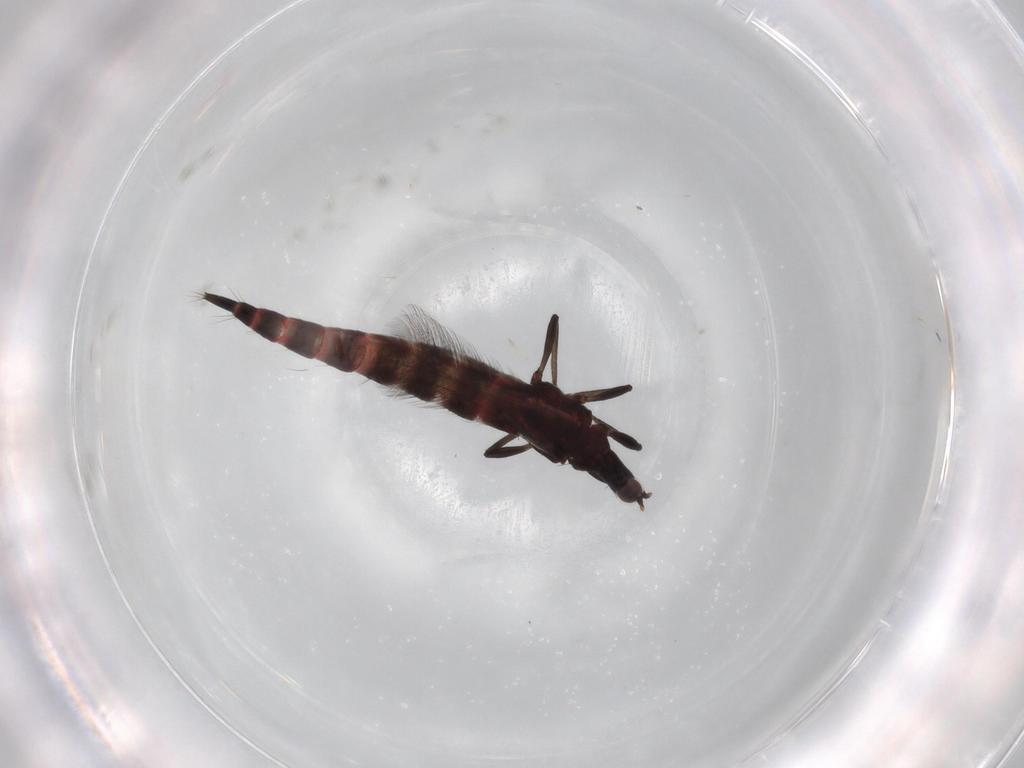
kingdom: Animalia
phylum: Arthropoda
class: Insecta
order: Thysanoptera
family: Phlaeothripidae
